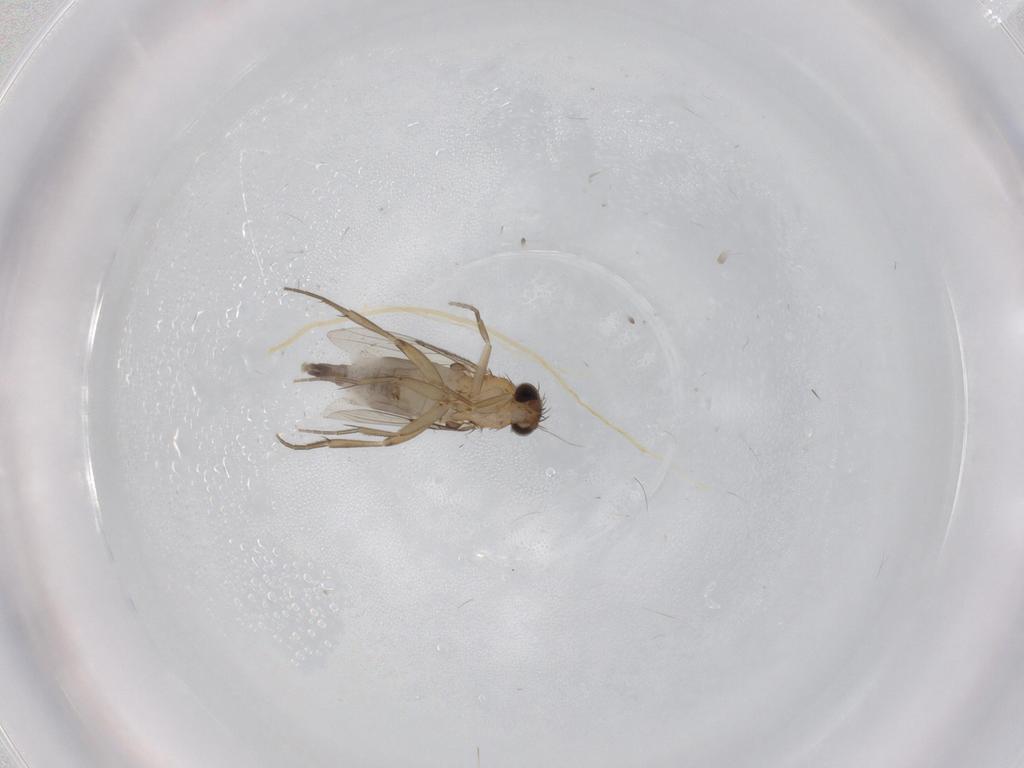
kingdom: Animalia
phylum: Arthropoda
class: Insecta
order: Diptera
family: Phoridae
